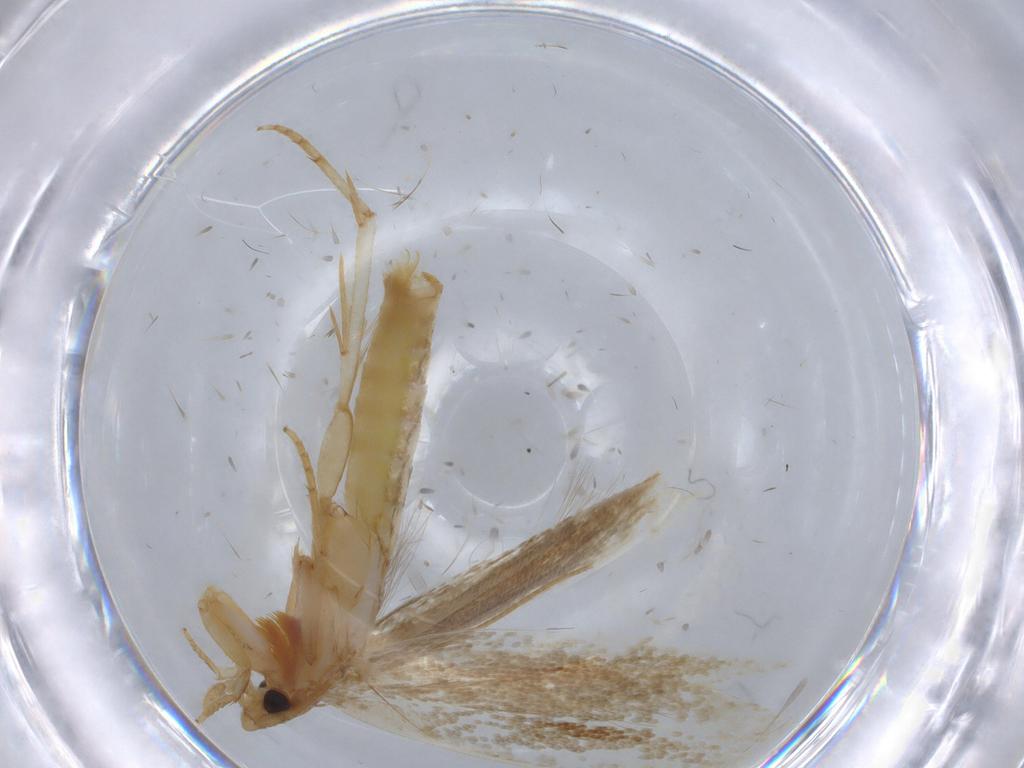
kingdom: Animalia
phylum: Arthropoda
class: Insecta
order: Lepidoptera
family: Tineidae
